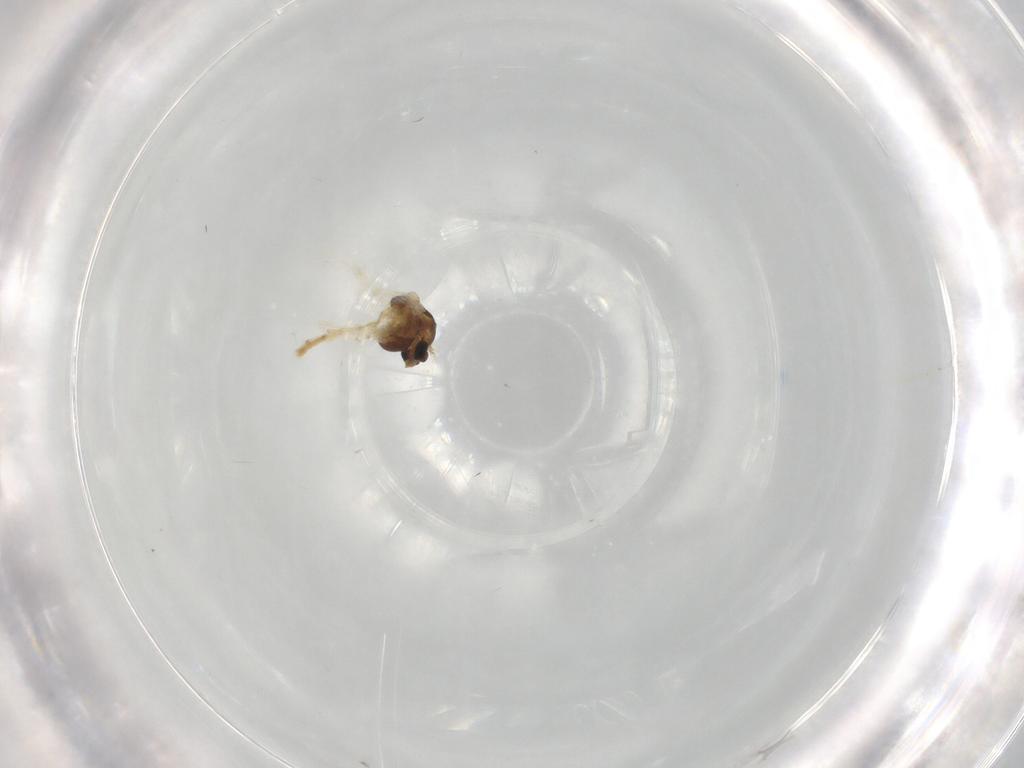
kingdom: Animalia
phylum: Arthropoda
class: Insecta
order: Diptera
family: Chironomidae
